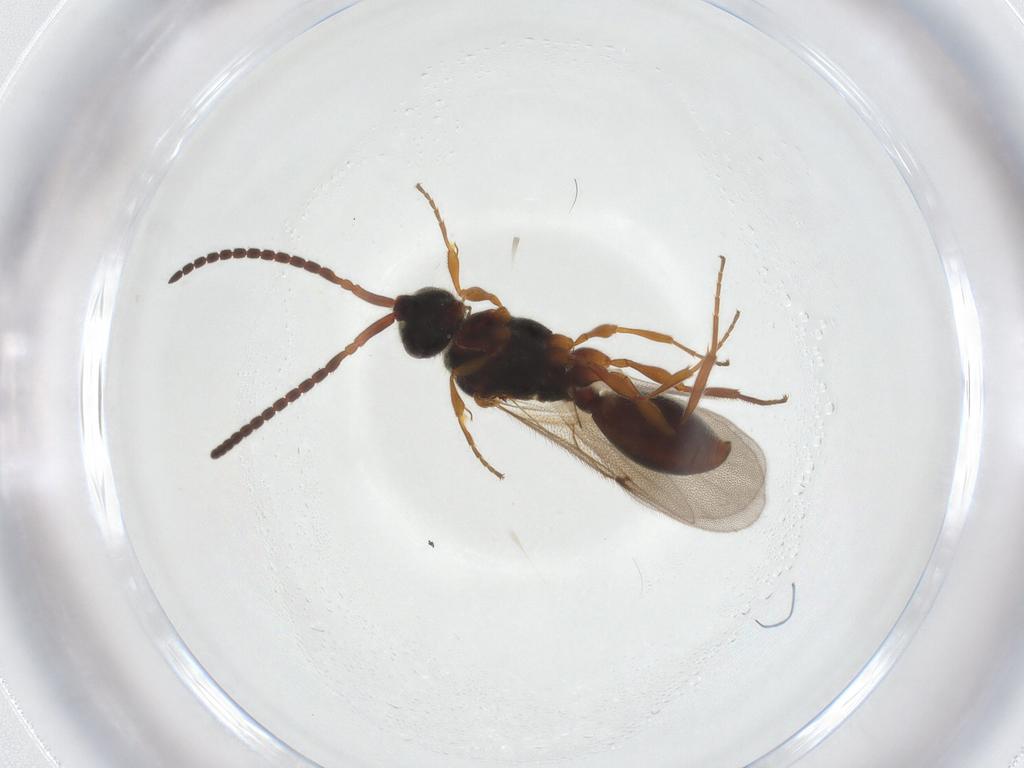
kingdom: Animalia
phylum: Arthropoda
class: Insecta
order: Hymenoptera
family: Diapriidae
